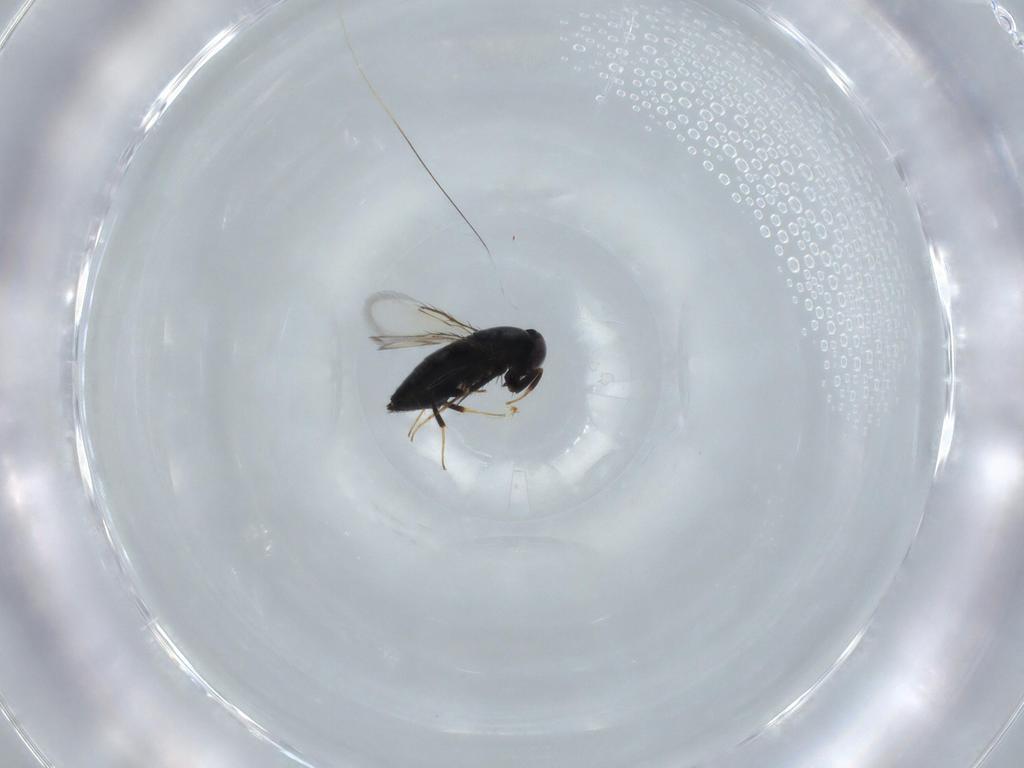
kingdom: Animalia
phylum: Arthropoda
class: Insecta
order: Hymenoptera
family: Signiphoridae
